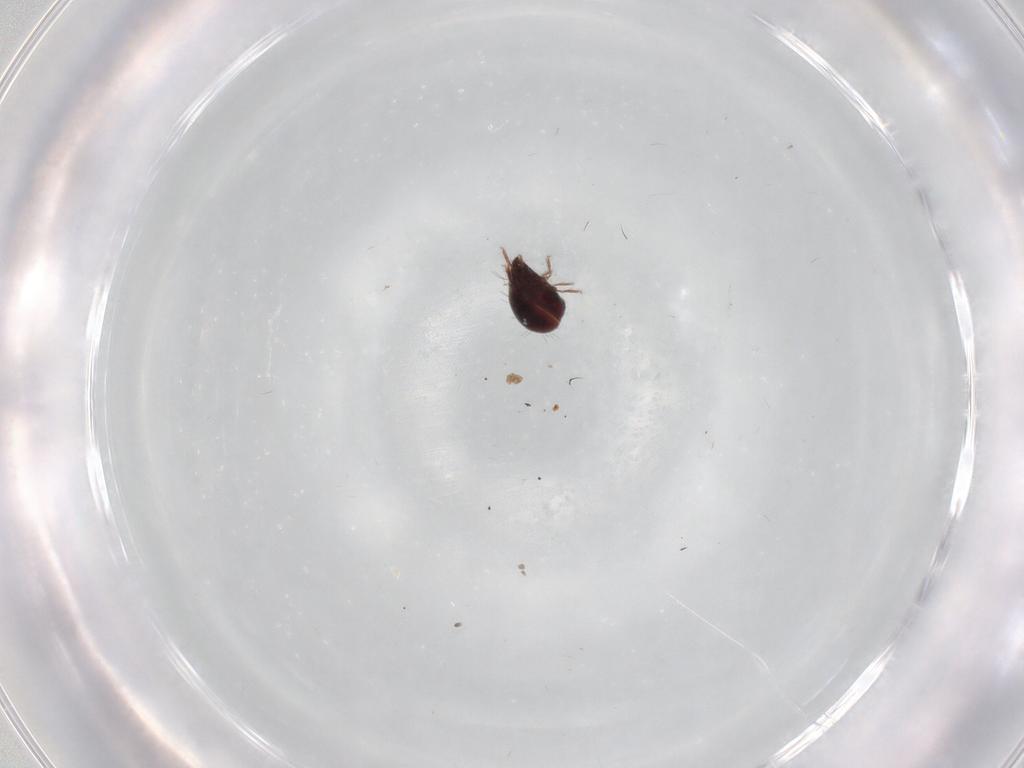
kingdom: Animalia
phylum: Arthropoda
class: Arachnida
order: Sarcoptiformes
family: Humerobatidae
